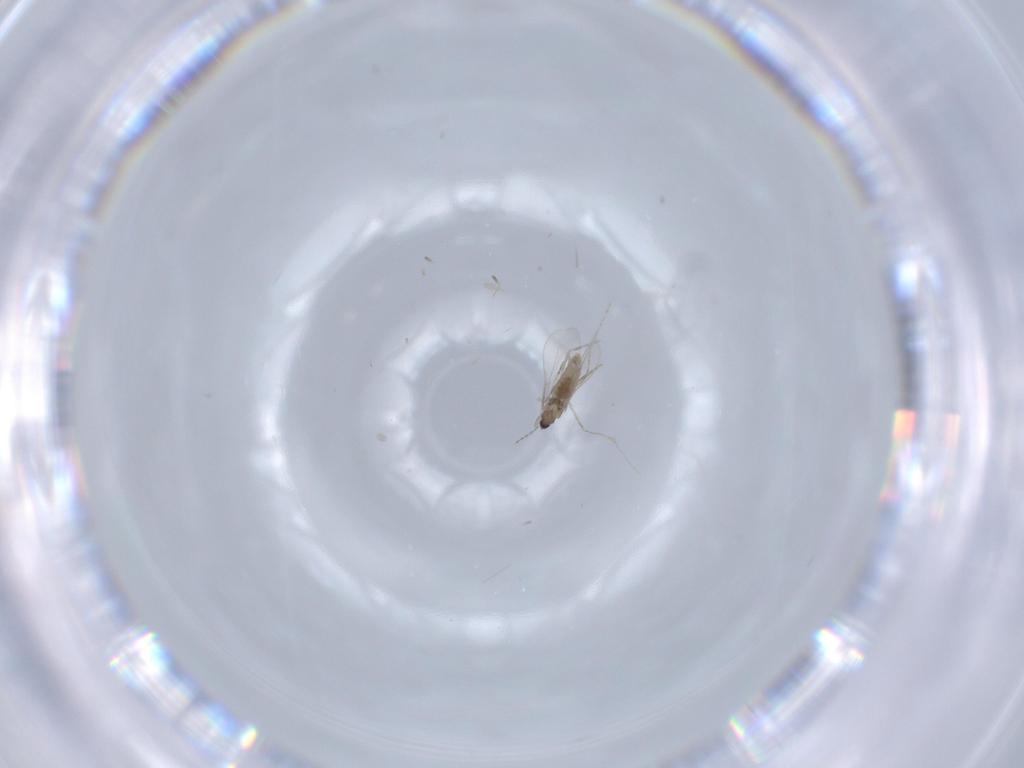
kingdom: Animalia
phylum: Arthropoda
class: Insecta
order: Diptera
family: Cecidomyiidae
